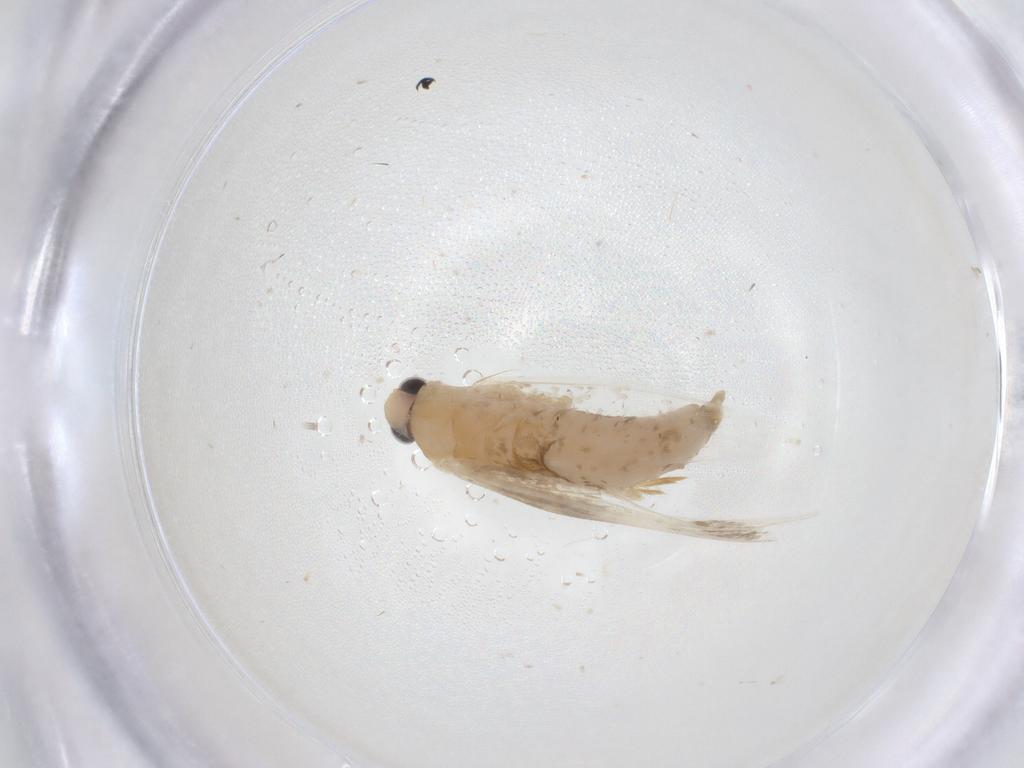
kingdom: Animalia
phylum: Arthropoda
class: Insecta
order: Lepidoptera
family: Tineidae
